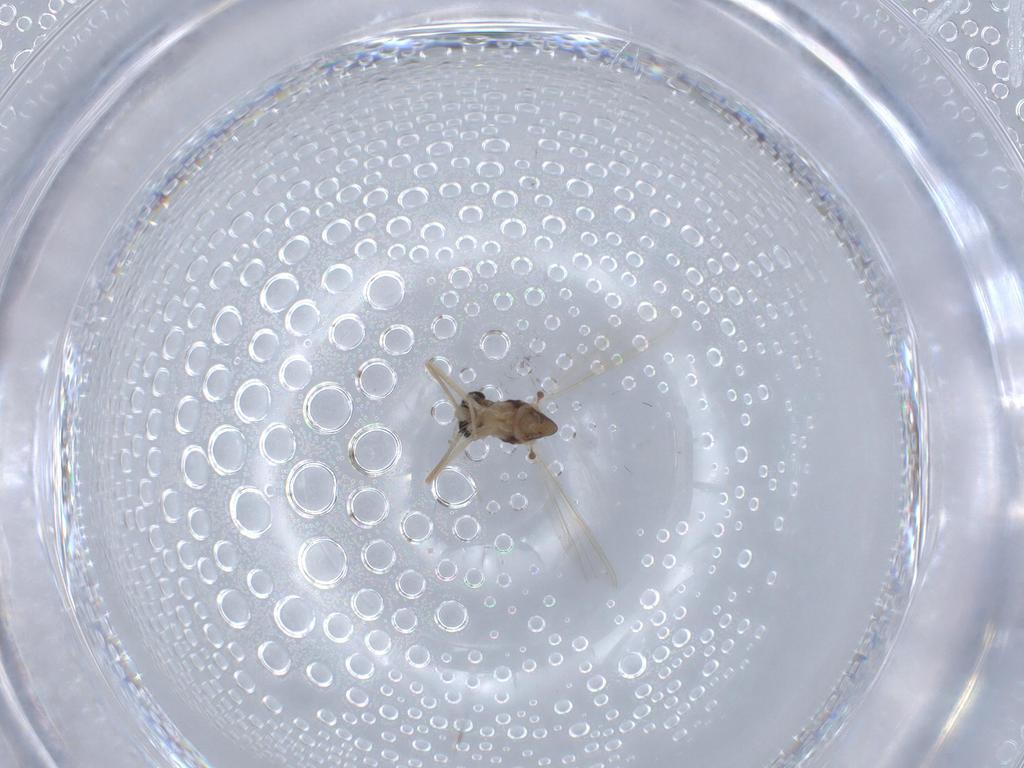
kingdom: Animalia
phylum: Arthropoda
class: Insecta
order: Diptera
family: Chironomidae
